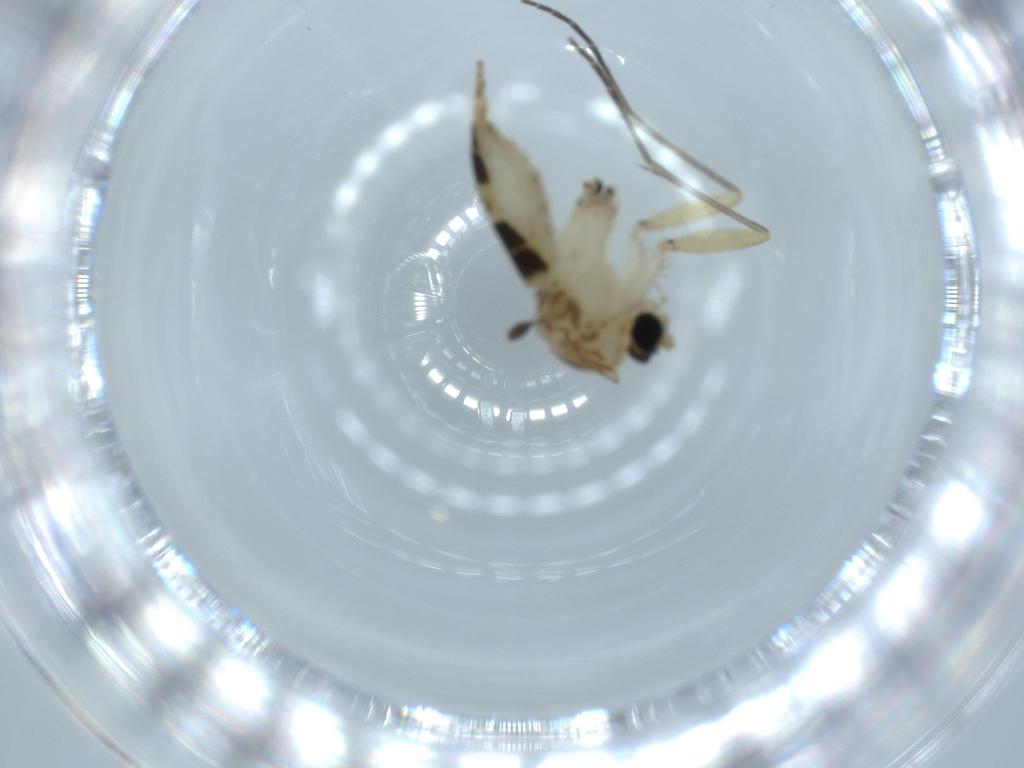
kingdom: Animalia
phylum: Arthropoda
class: Insecta
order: Diptera
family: Sciaridae
